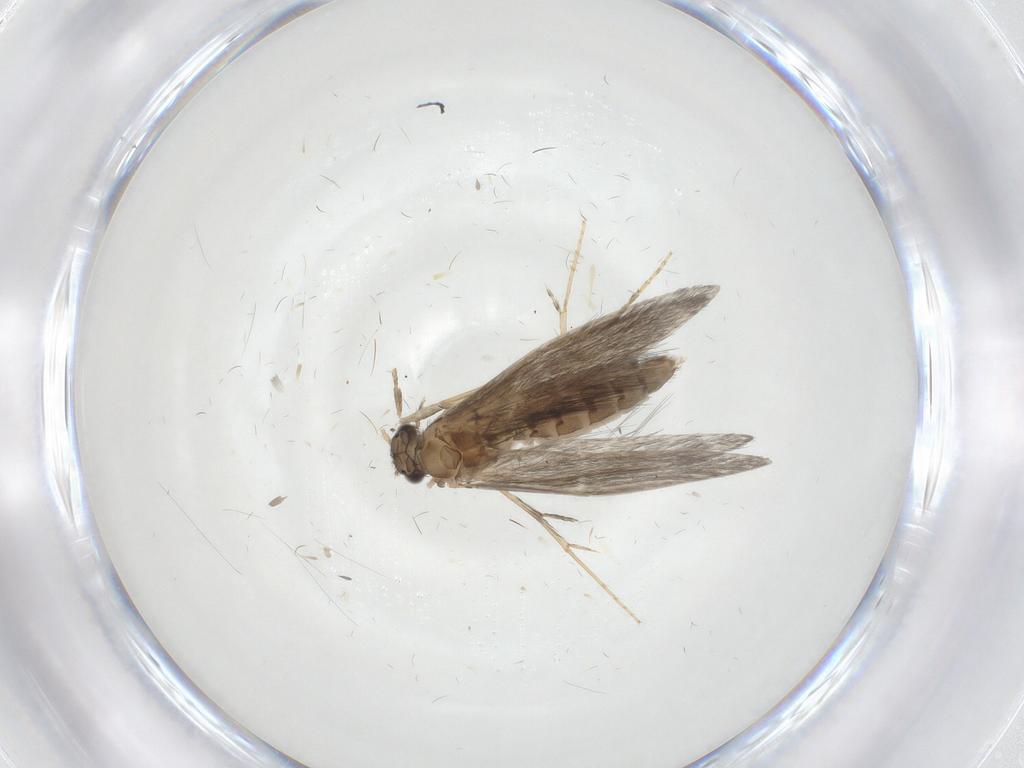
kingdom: Animalia
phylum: Arthropoda
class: Insecta
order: Trichoptera
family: Hydroptilidae
